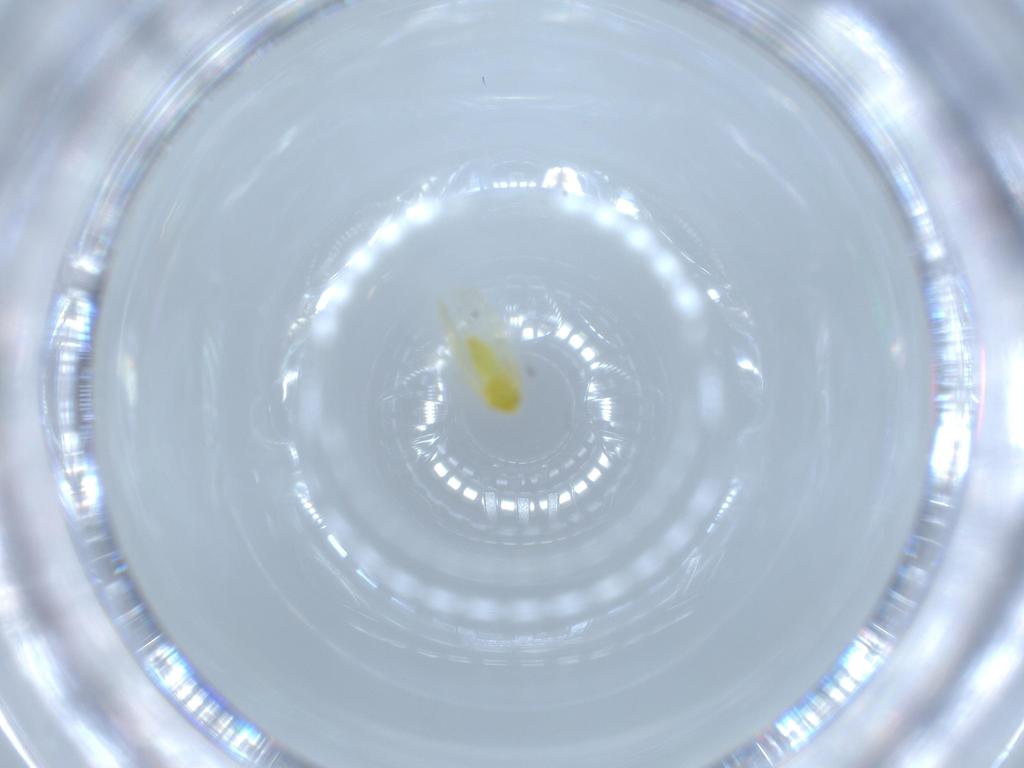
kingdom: Animalia
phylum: Arthropoda
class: Insecta
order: Hemiptera
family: Aleyrodidae
